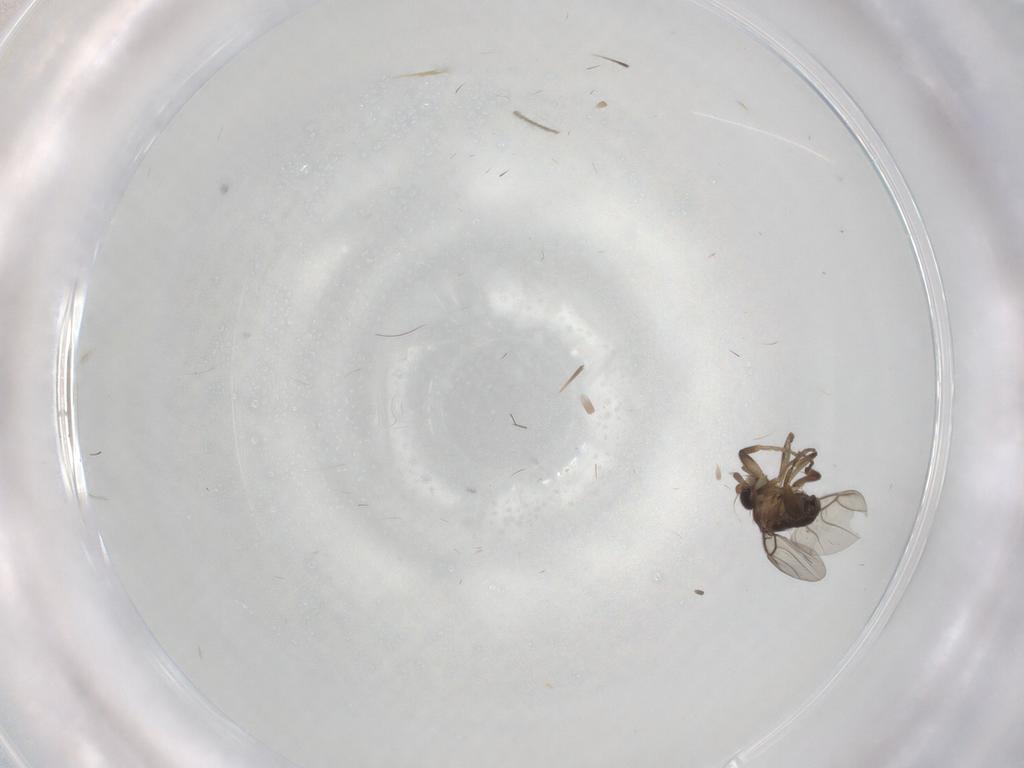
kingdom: Animalia
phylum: Arthropoda
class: Insecta
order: Diptera
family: Phoridae
